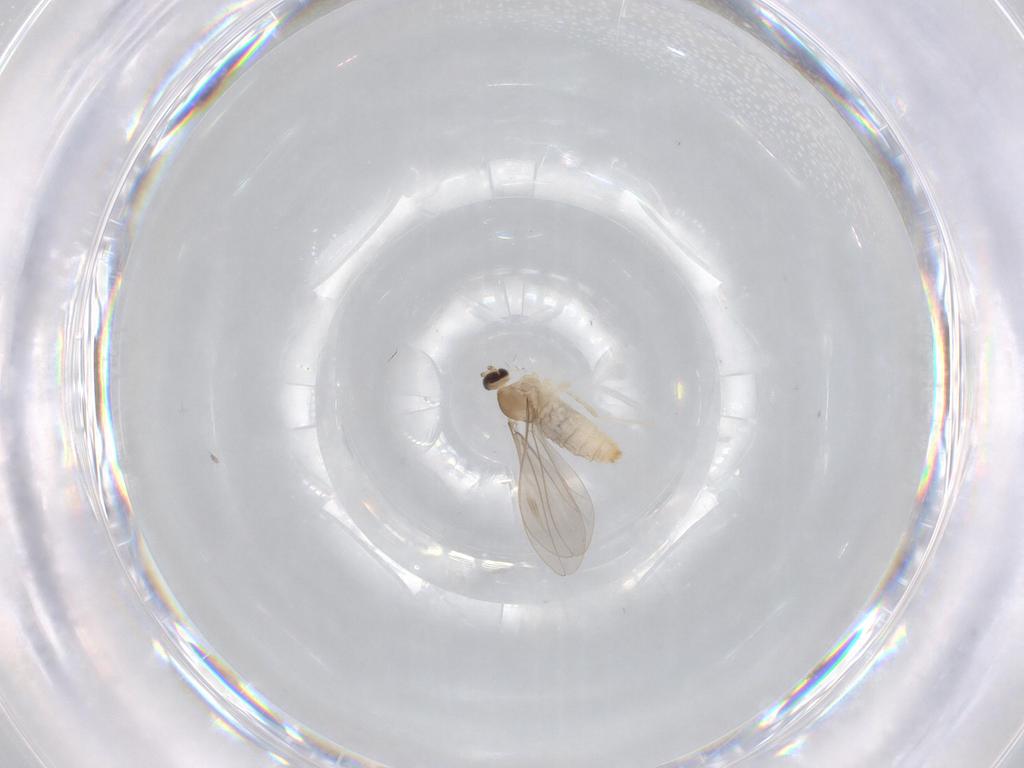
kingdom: Animalia
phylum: Arthropoda
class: Insecta
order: Diptera
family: Cecidomyiidae
